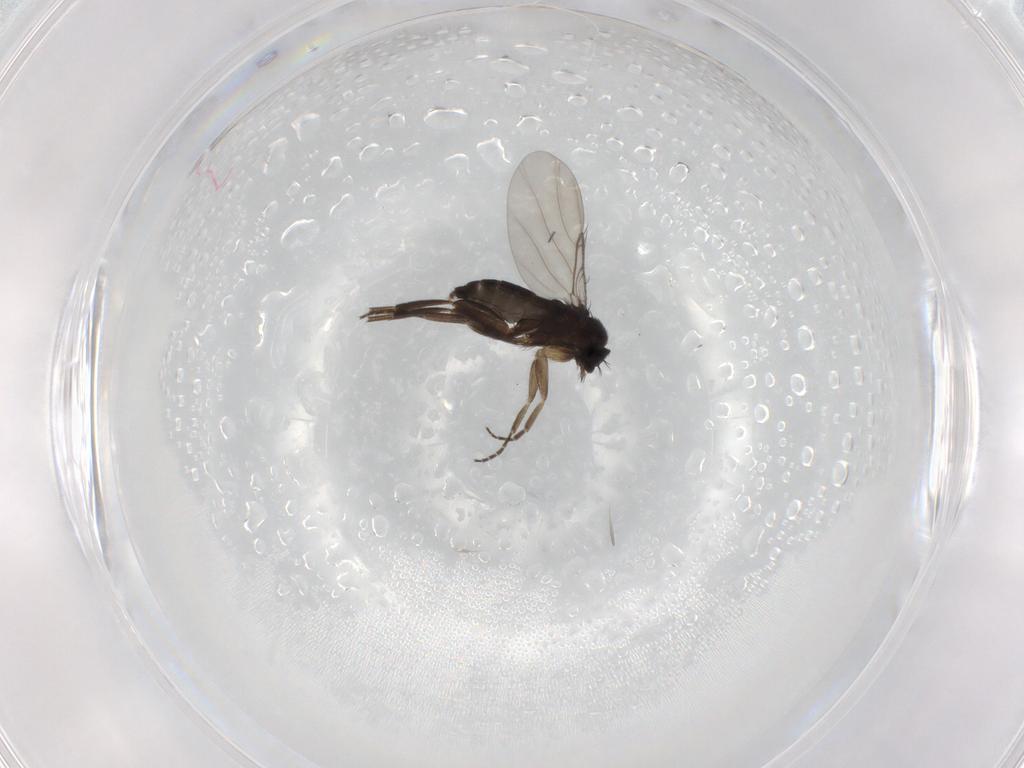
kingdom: Animalia
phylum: Arthropoda
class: Insecta
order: Diptera
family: Phoridae
